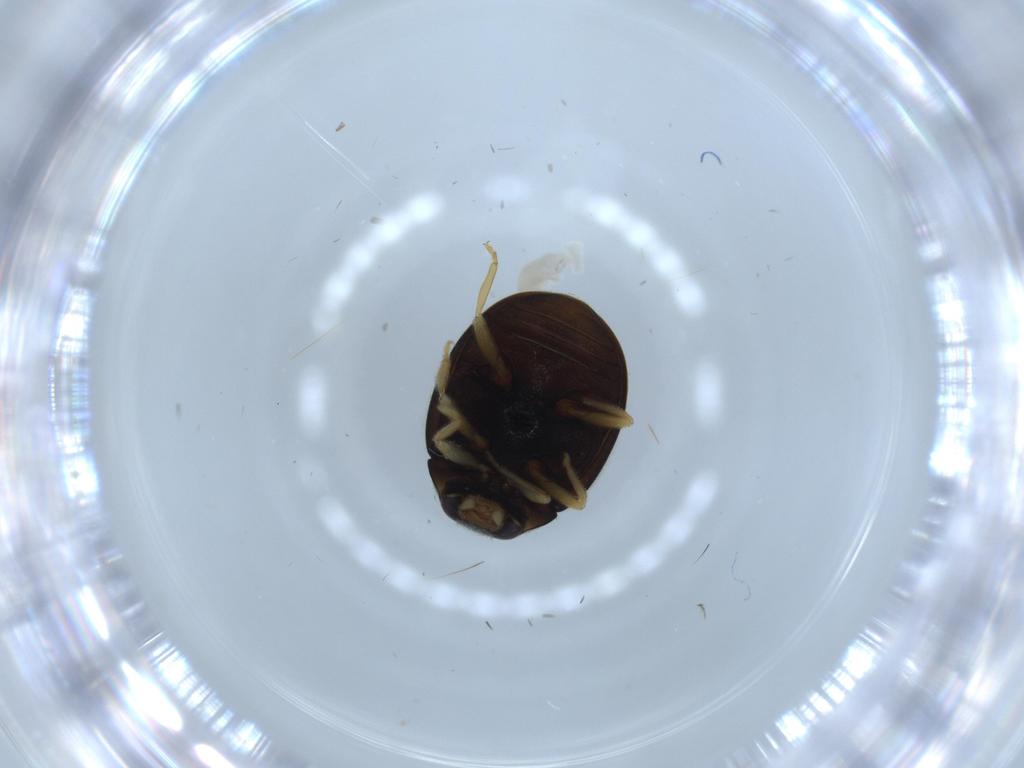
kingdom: Animalia
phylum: Arthropoda
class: Insecta
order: Coleoptera
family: Coccinellidae
